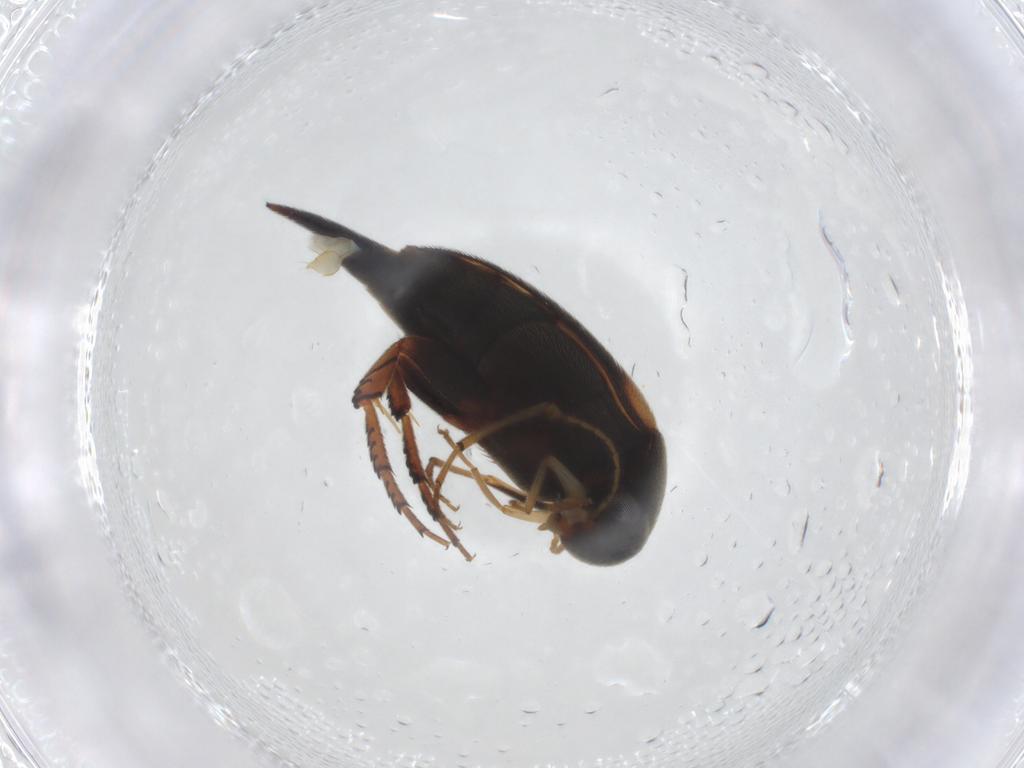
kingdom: Animalia
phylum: Arthropoda
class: Insecta
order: Coleoptera
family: Mordellidae
